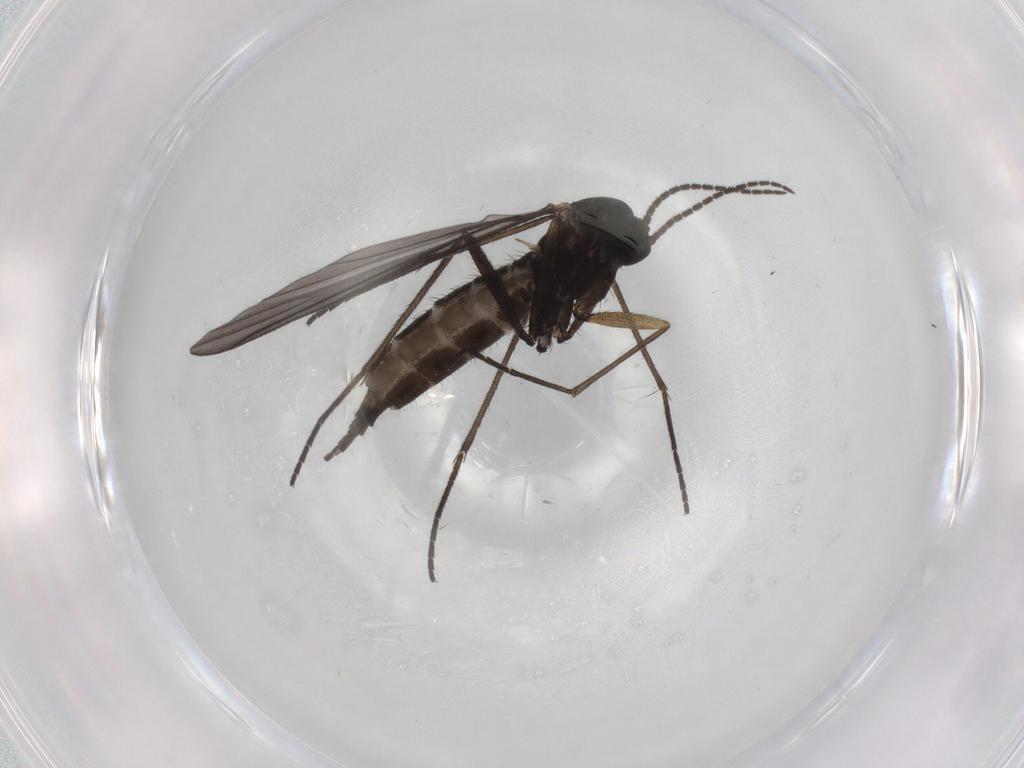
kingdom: Animalia
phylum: Arthropoda
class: Insecta
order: Diptera
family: Sciaridae
